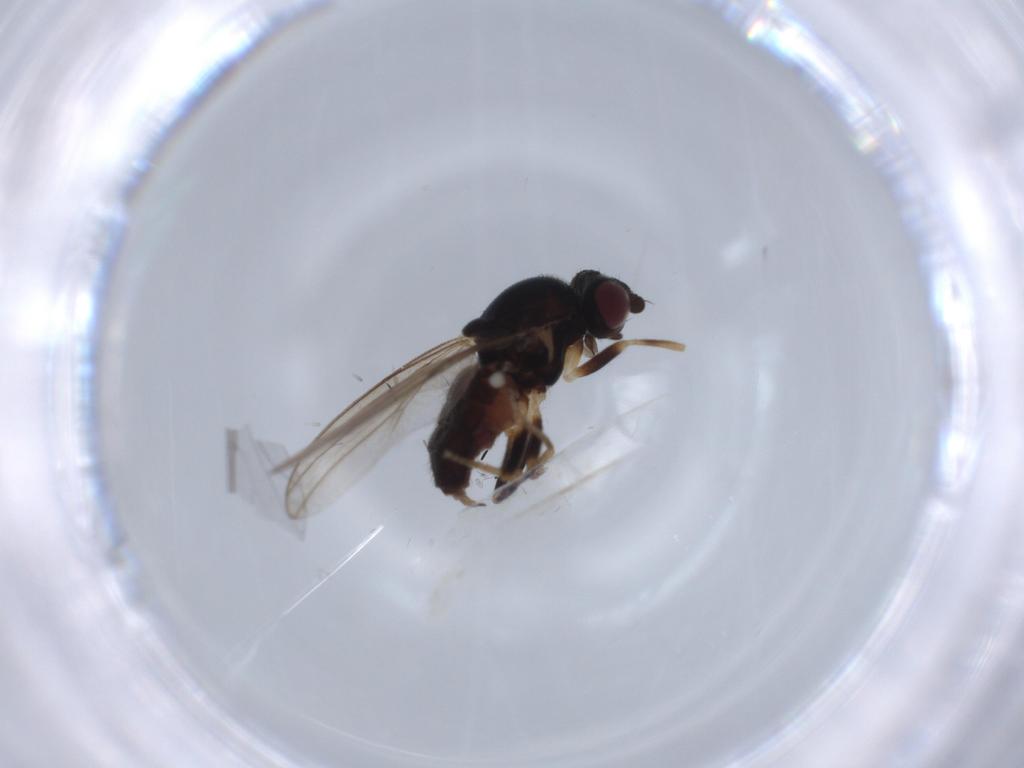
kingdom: Animalia
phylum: Arthropoda
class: Insecta
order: Diptera
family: Chloropidae
